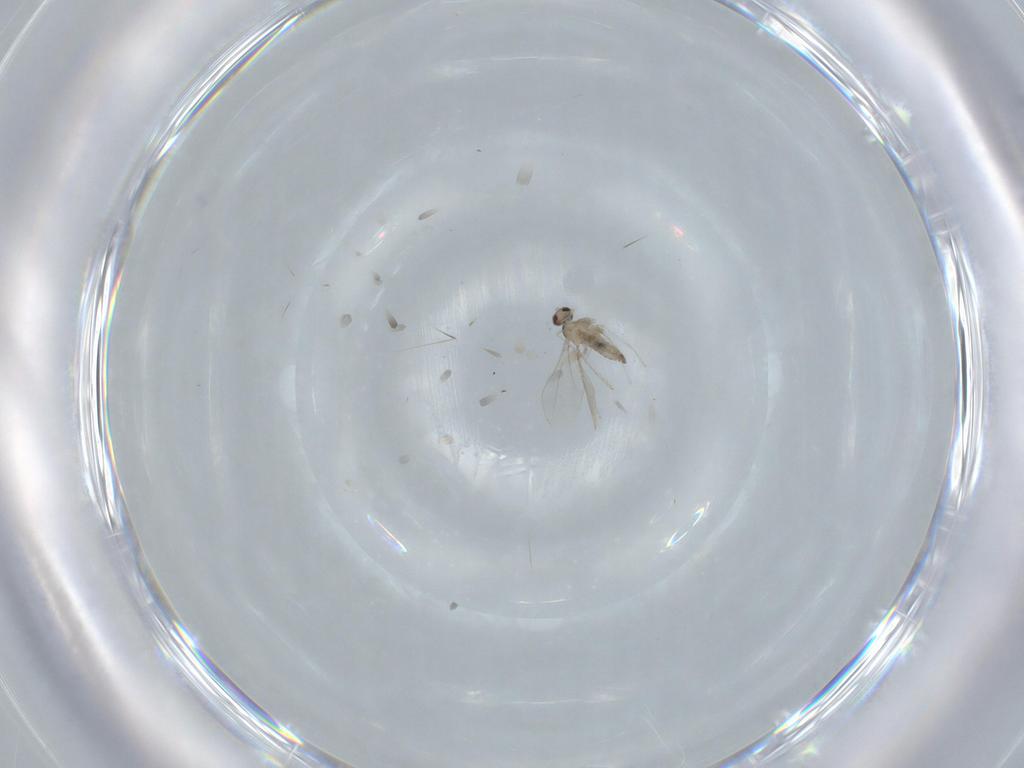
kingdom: Animalia
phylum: Arthropoda
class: Insecta
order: Diptera
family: Cecidomyiidae
